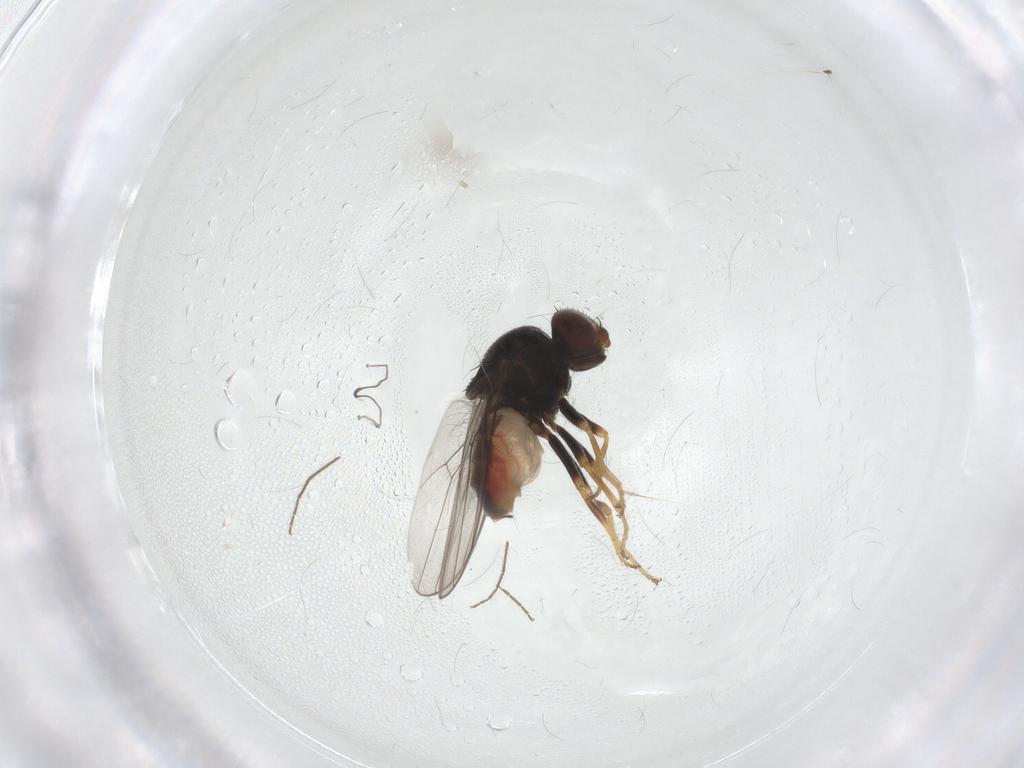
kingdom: Animalia
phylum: Arthropoda
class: Insecta
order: Diptera
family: Chloropidae
